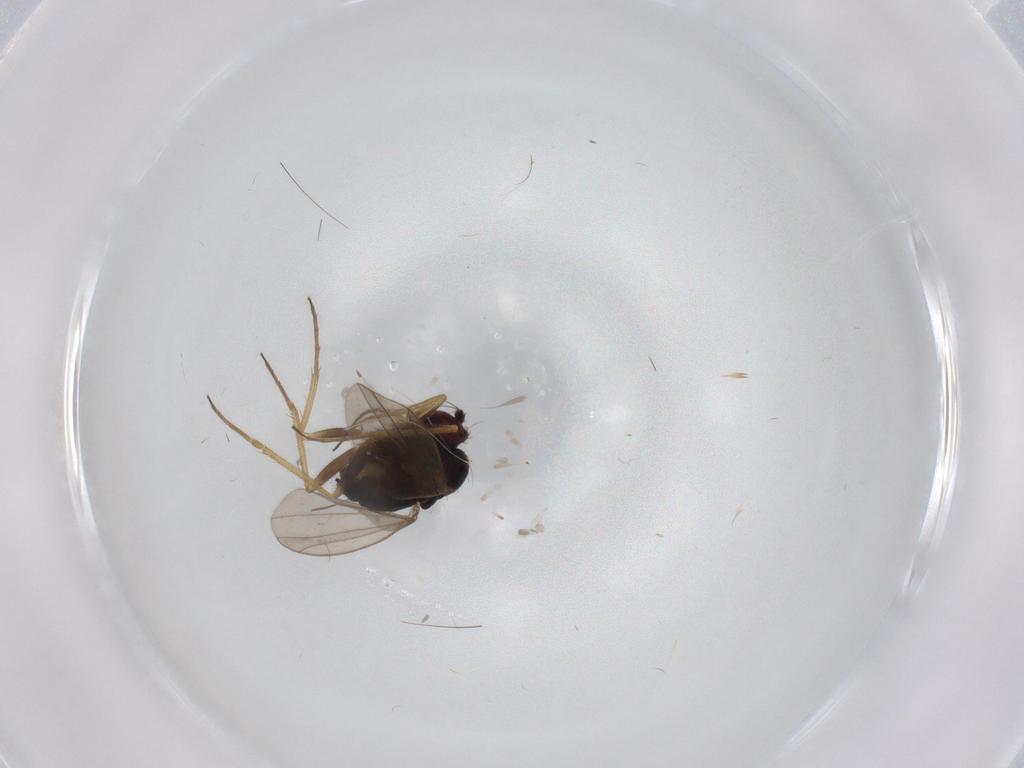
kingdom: Animalia
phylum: Arthropoda
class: Insecta
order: Diptera
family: Dolichopodidae
